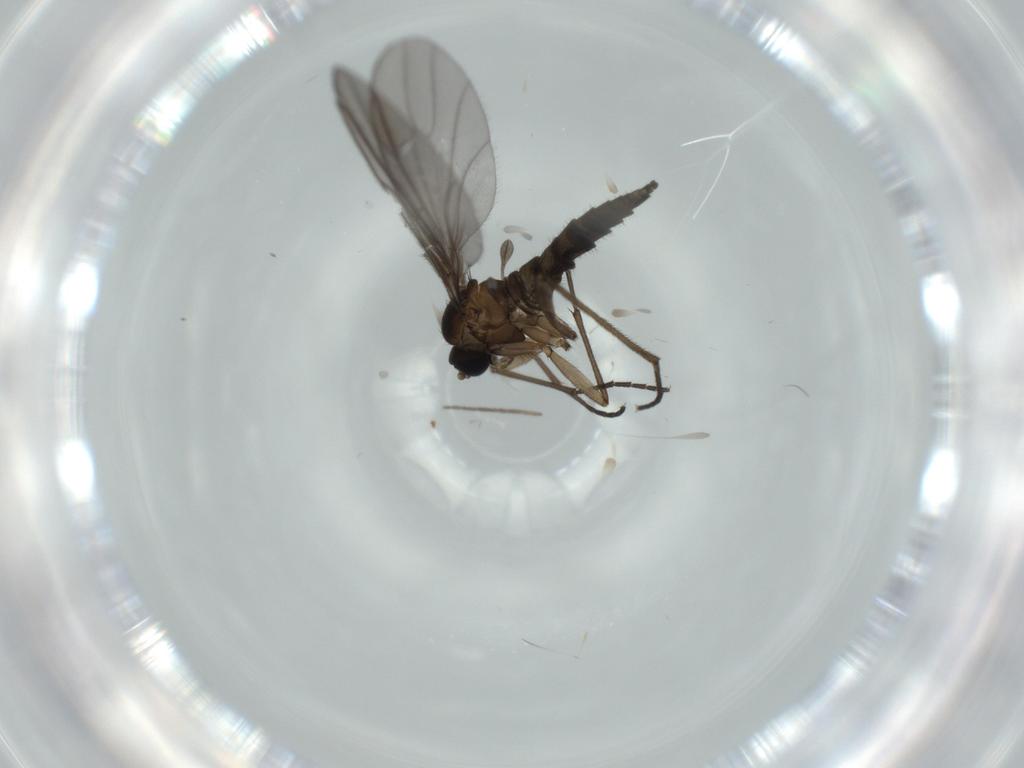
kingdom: Animalia
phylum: Arthropoda
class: Insecta
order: Diptera
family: Chironomidae
